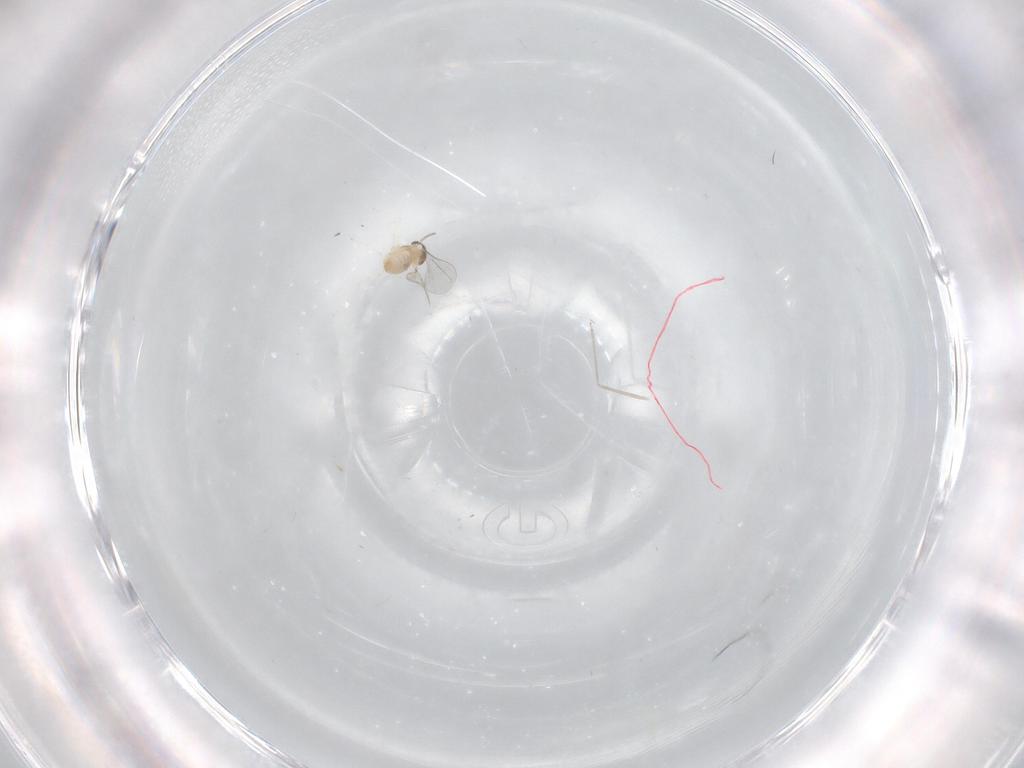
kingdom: Animalia
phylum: Arthropoda
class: Insecta
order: Diptera
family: Cecidomyiidae
